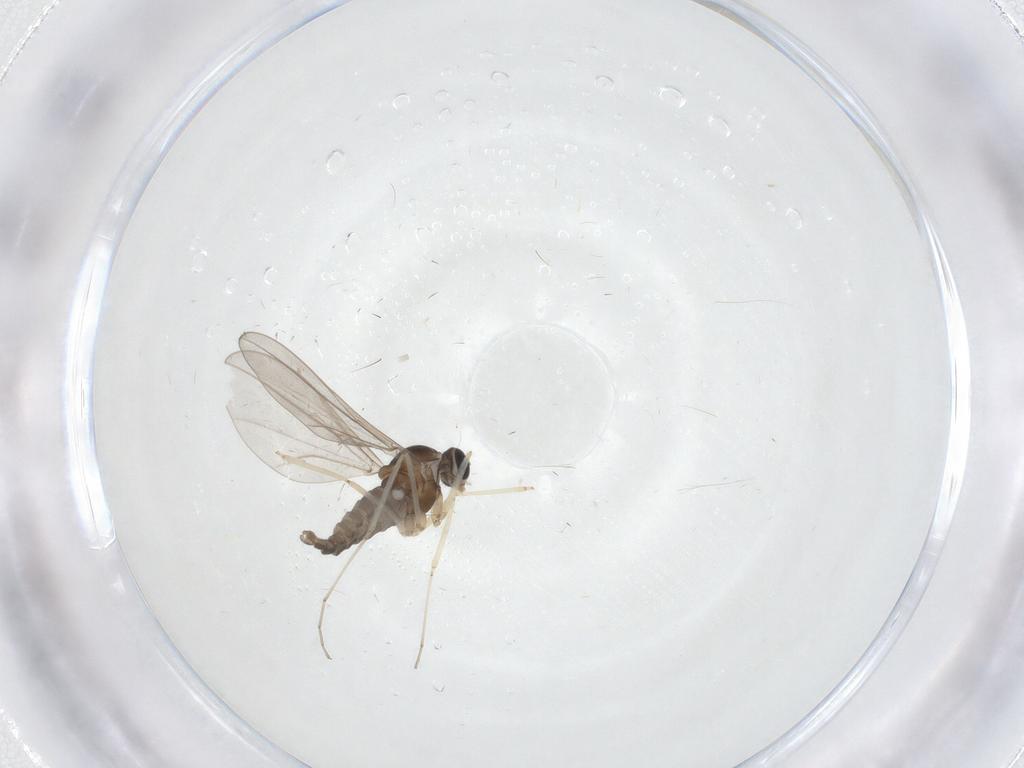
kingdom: Animalia
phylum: Arthropoda
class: Insecta
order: Diptera
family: Cecidomyiidae
